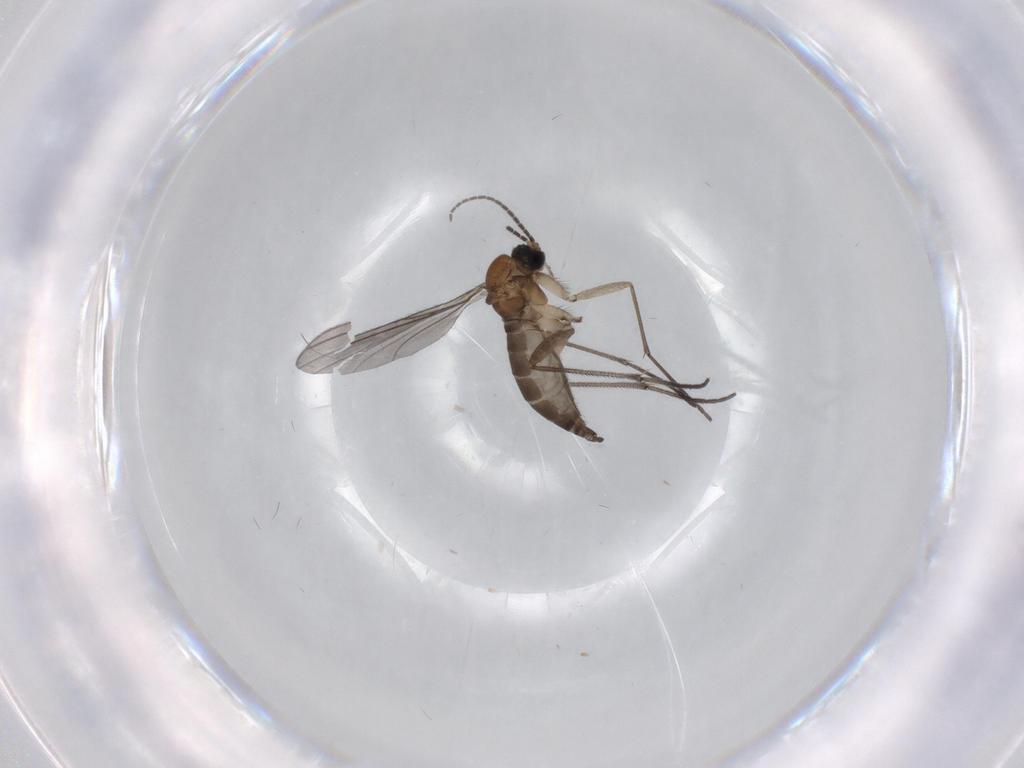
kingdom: Animalia
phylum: Arthropoda
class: Insecta
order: Diptera
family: Sciaridae
